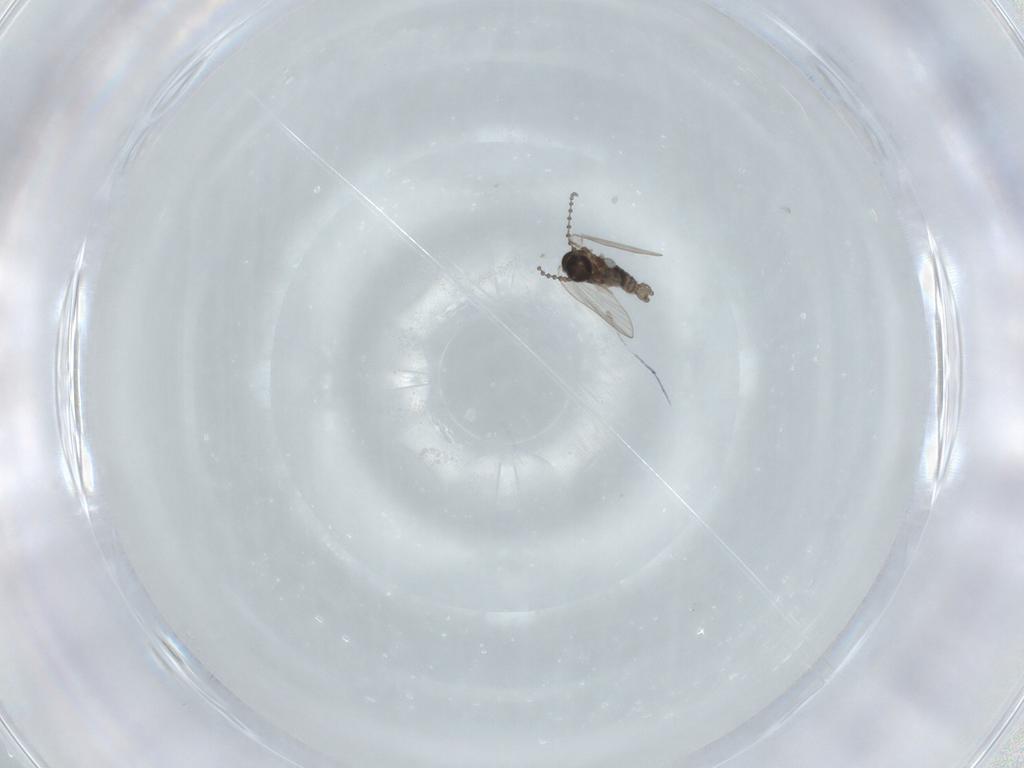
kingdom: Animalia
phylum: Arthropoda
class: Insecta
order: Diptera
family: Psychodidae
